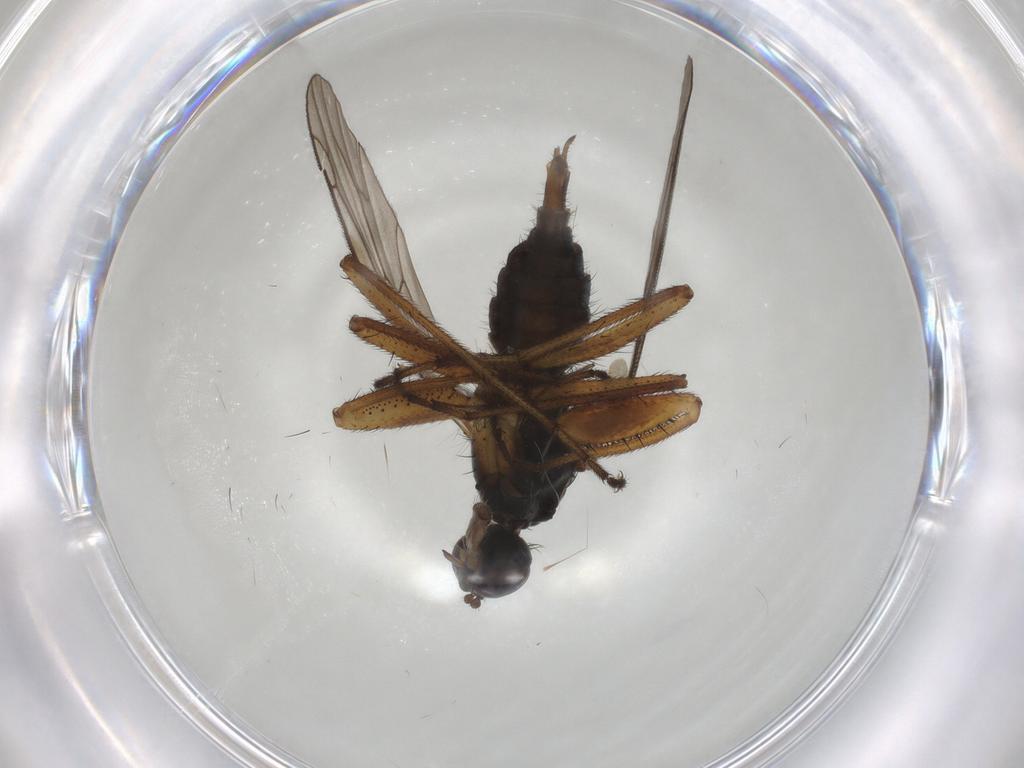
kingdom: Animalia
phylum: Arthropoda
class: Insecta
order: Diptera
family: Empididae
